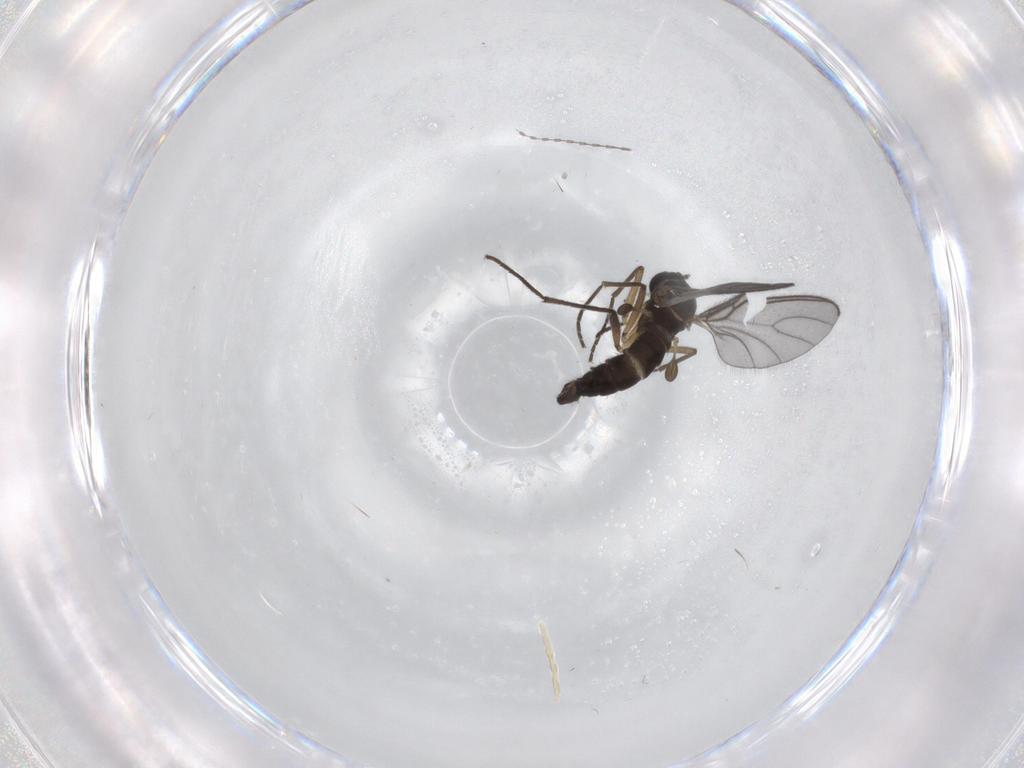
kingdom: Animalia
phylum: Arthropoda
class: Insecta
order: Diptera
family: Sciaridae
